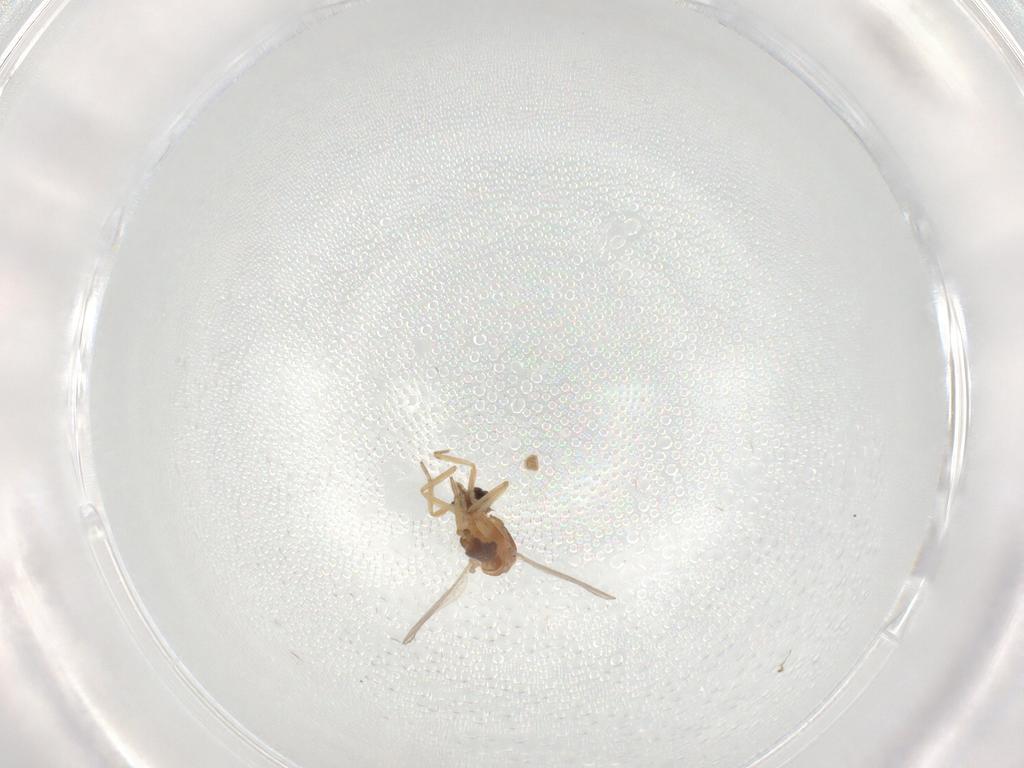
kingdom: Animalia
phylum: Arthropoda
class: Insecta
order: Diptera
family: Ceratopogonidae
